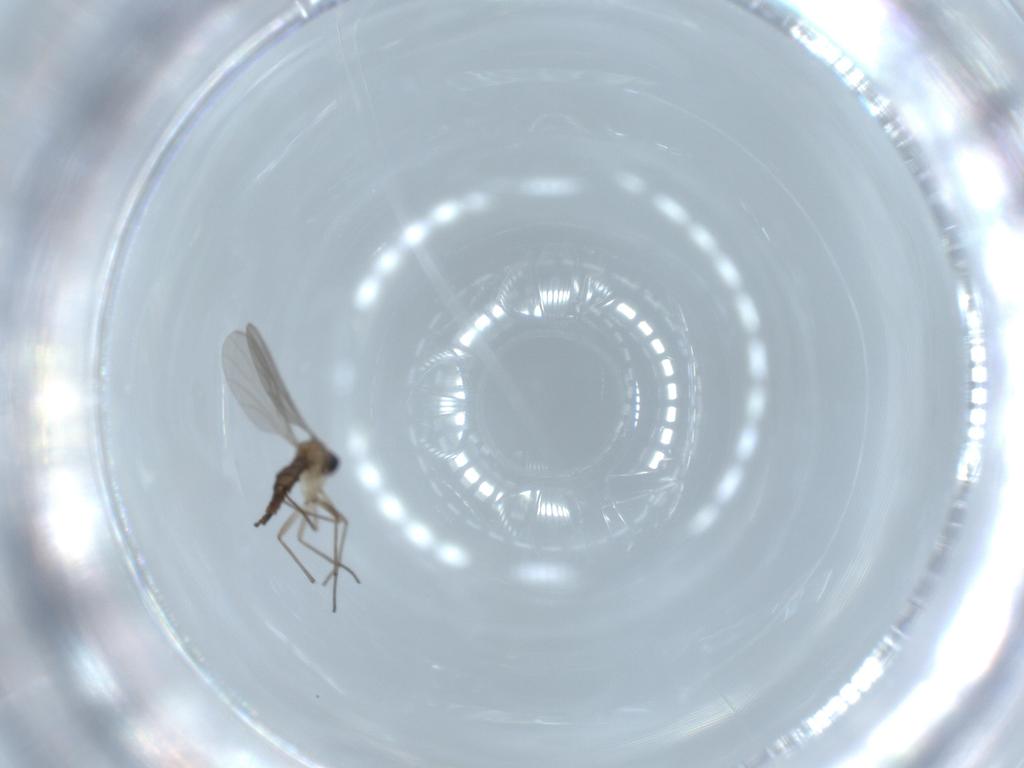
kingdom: Animalia
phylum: Arthropoda
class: Insecta
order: Diptera
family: Sciaridae
